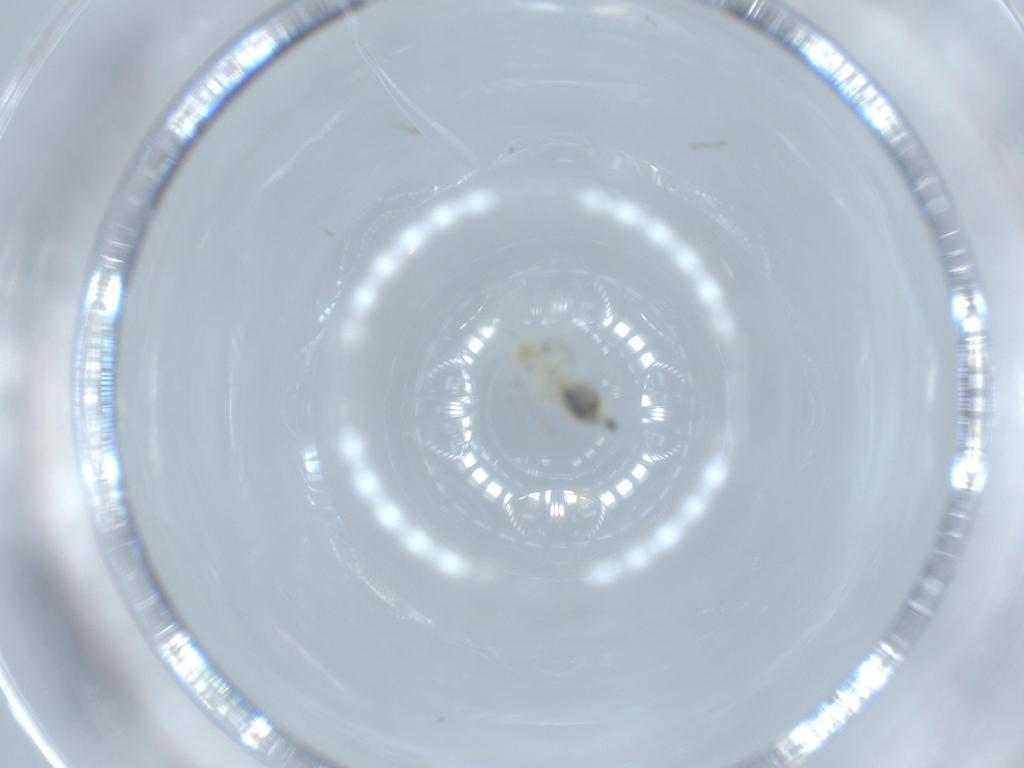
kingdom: Animalia
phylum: Arthropoda
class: Insecta
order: Psocodea
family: Caeciliusidae
